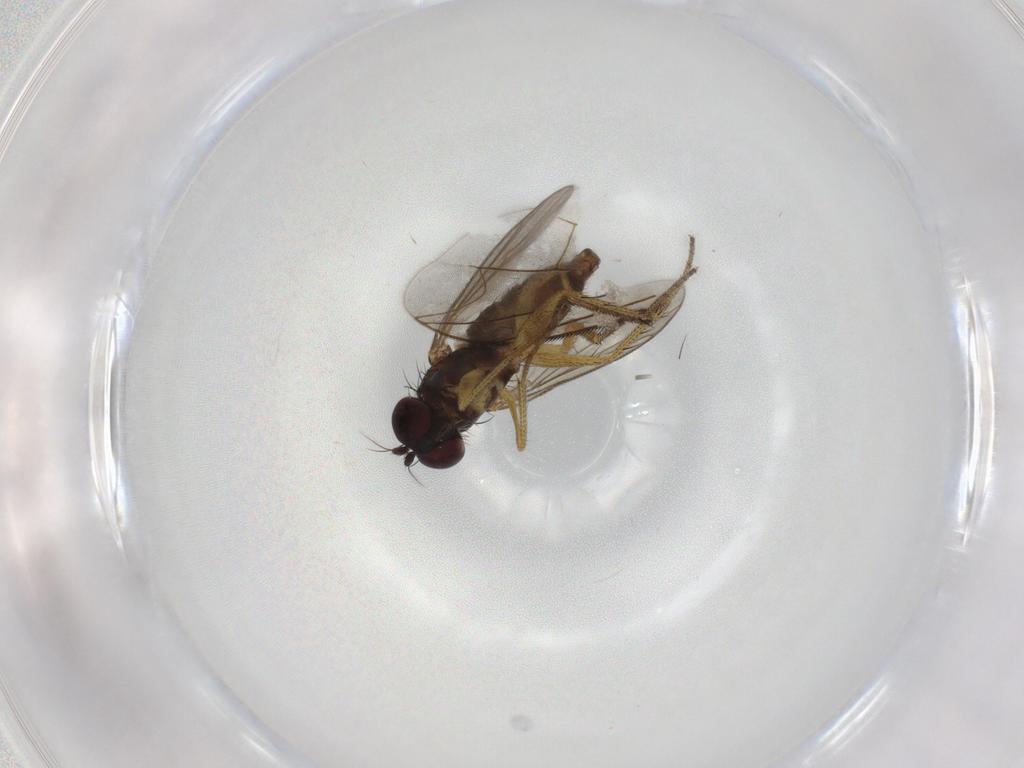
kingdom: Animalia
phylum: Arthropoda
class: Insecta
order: Diptera
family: Dolichopodidae
